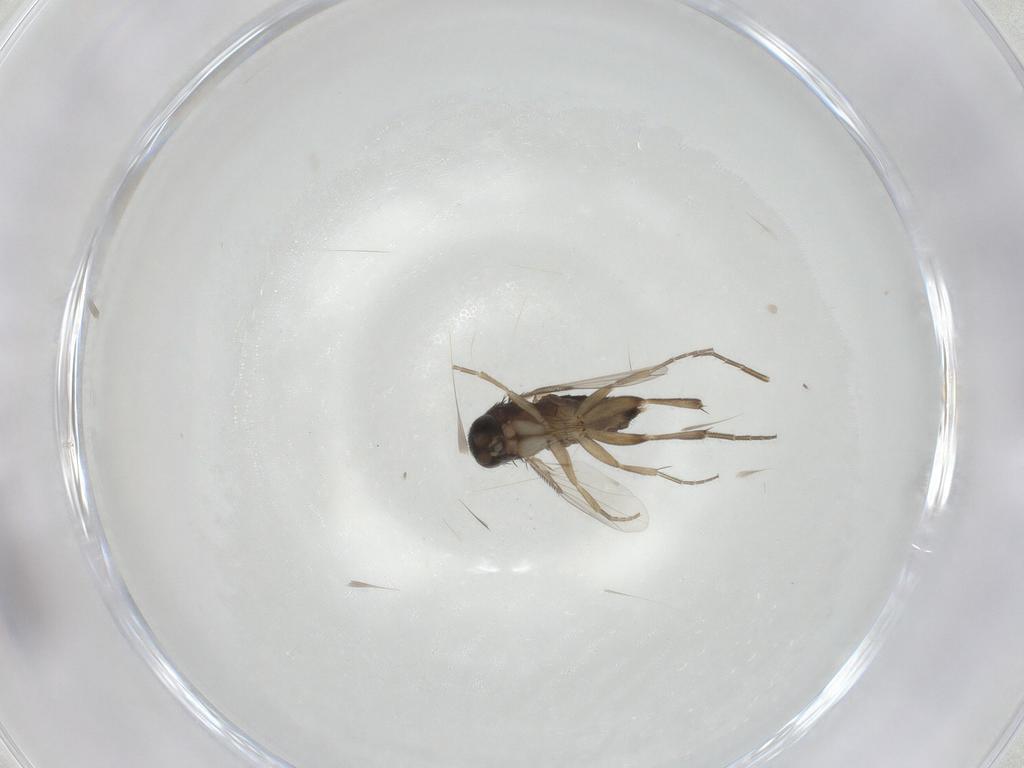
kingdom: Animalia
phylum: Arthropoda
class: Insecta
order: Diptera
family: Phoridae
